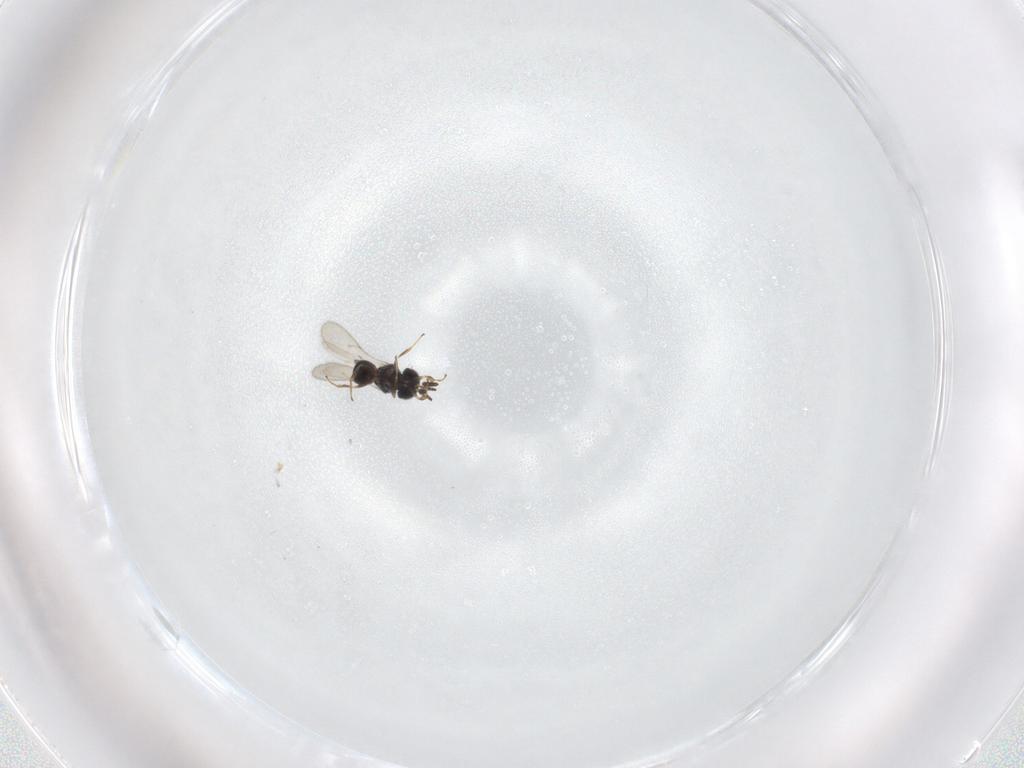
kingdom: Animalia
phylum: Arthropoda
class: Insecta
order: Hymenoptera
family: Scelionidae
